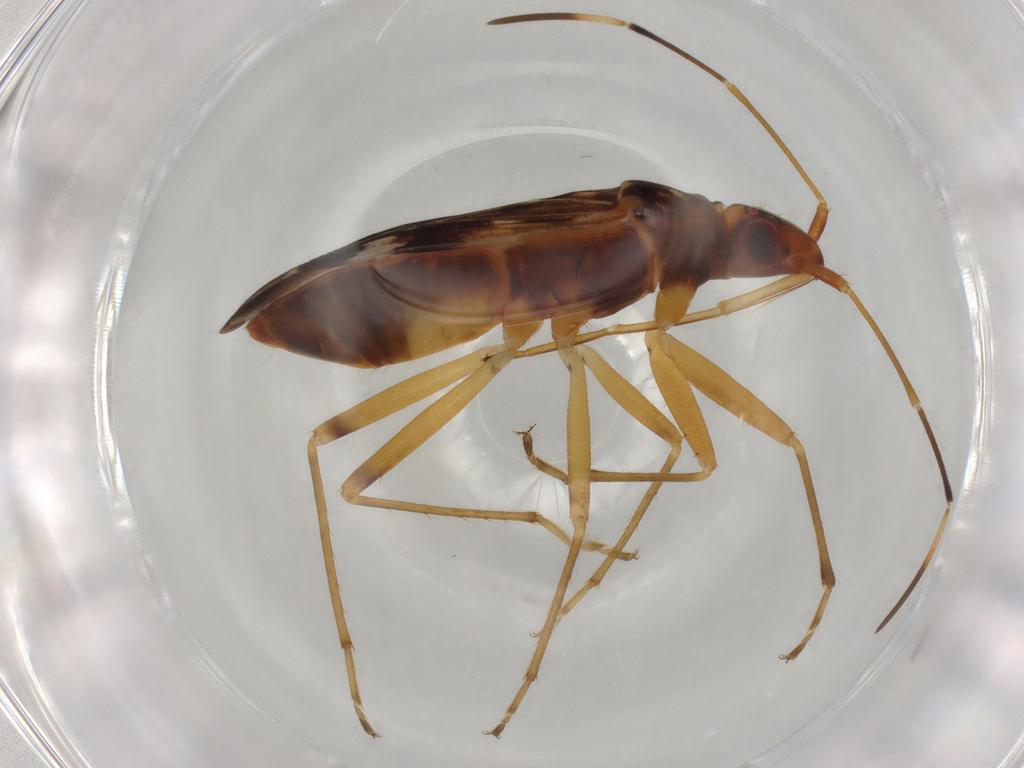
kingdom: Animalia
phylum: Arthropoda
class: Insecta
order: Hemiptera
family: Rhyparochromidae
